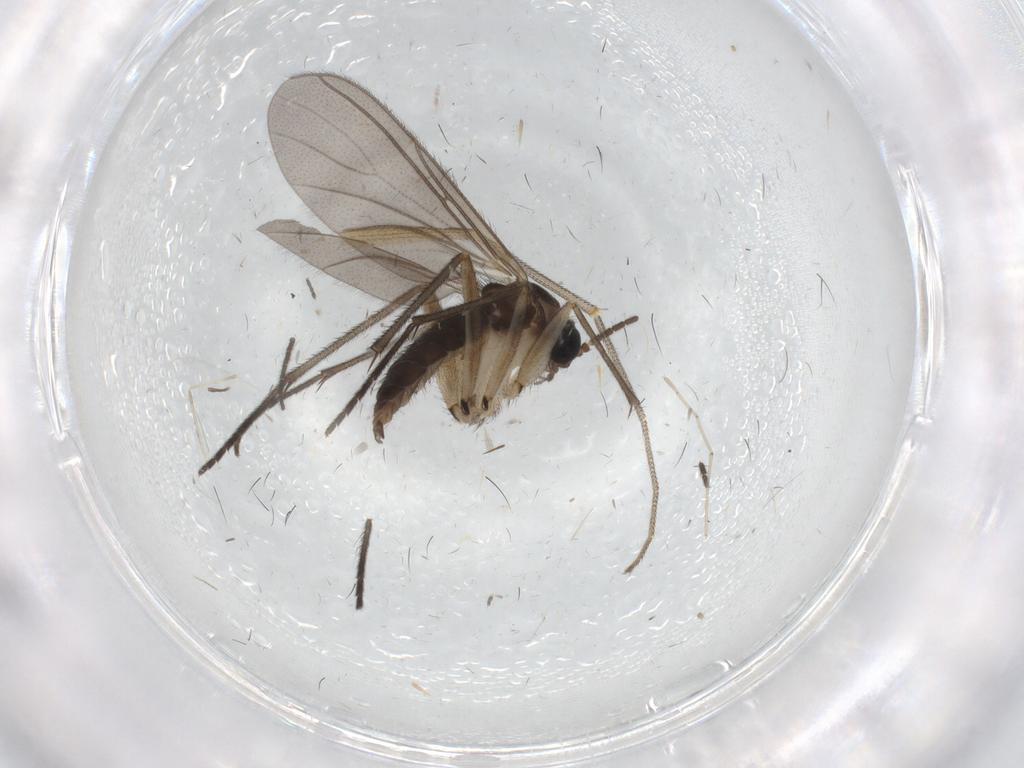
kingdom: Animalia
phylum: Arthropoda
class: Insecta
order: Diptera
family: Sciaridae
